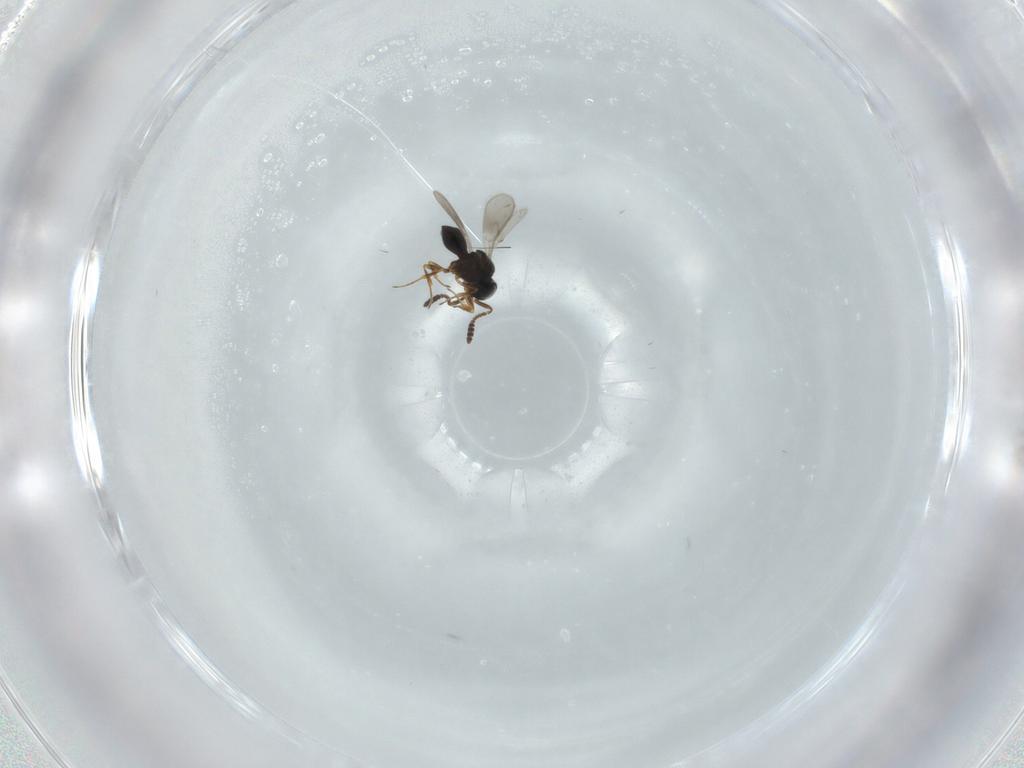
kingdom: Animalia
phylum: Arthropoda
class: Insecta
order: Hymenoptera
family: Scelionidae
